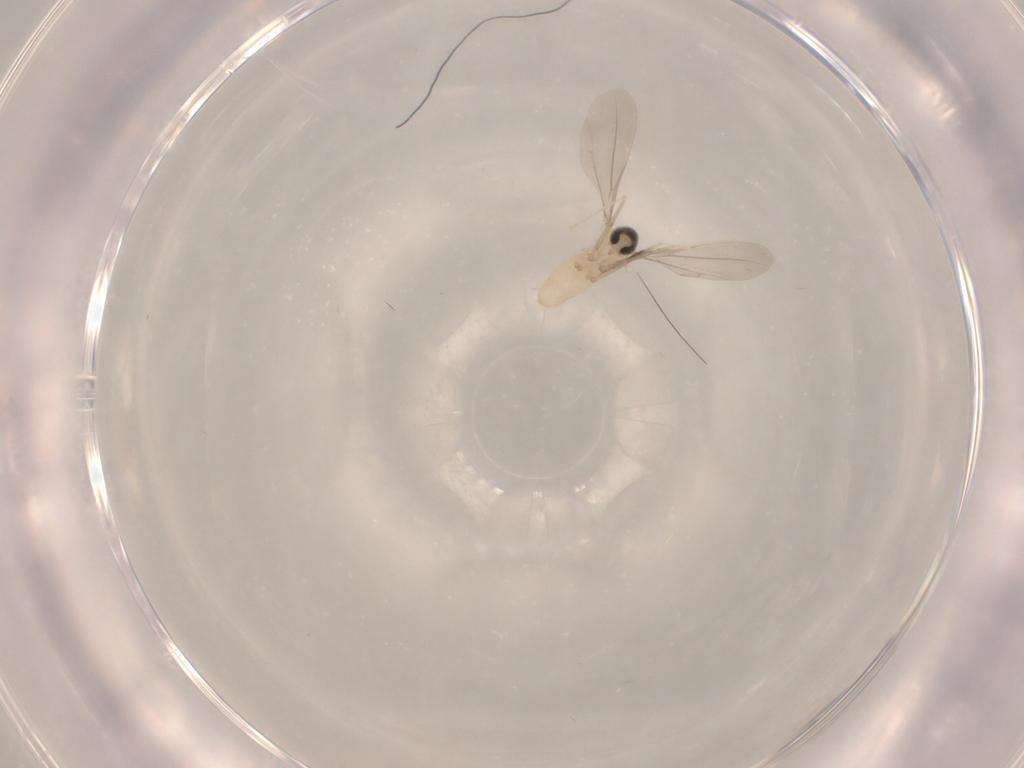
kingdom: Animalia
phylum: Arthropoda
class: Insecta
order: Diptera
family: Cecidomyiidae
